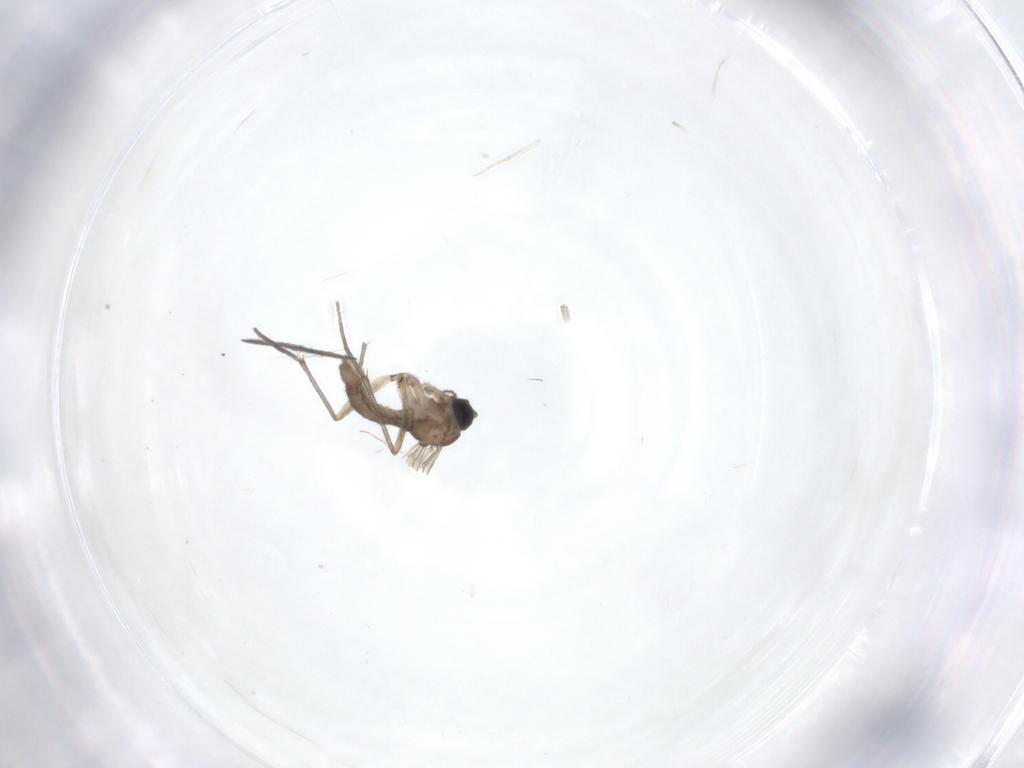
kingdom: Animalia
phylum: Arthropoda
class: Insecta
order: Diptera
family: Sciaridae
